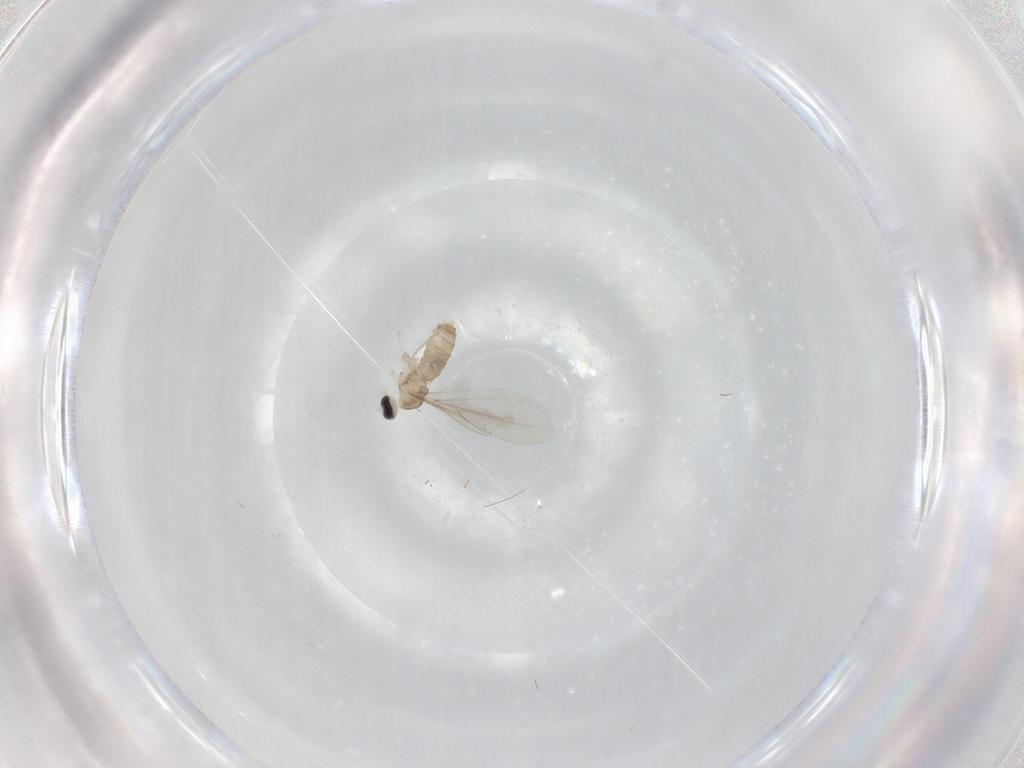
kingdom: Animalia
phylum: Arthropoda
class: Insecta
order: Diptera
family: Cecidomyiidae
